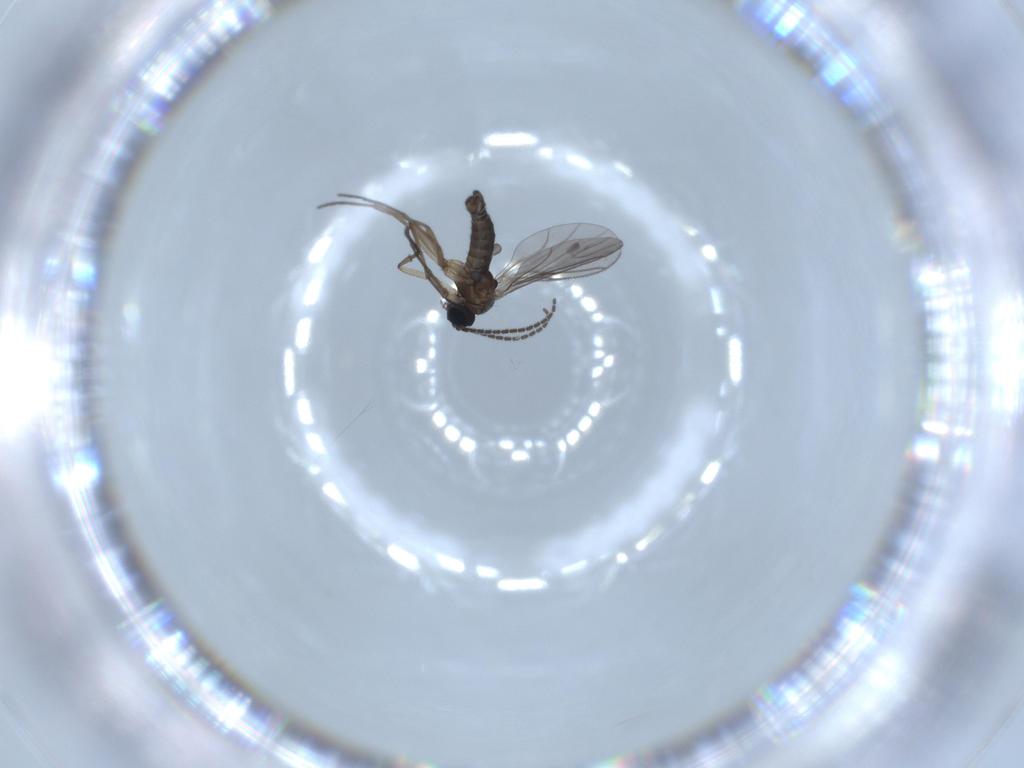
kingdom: Animalia
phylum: Arthropoda
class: Insecta
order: Diptera
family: Sciaridae
